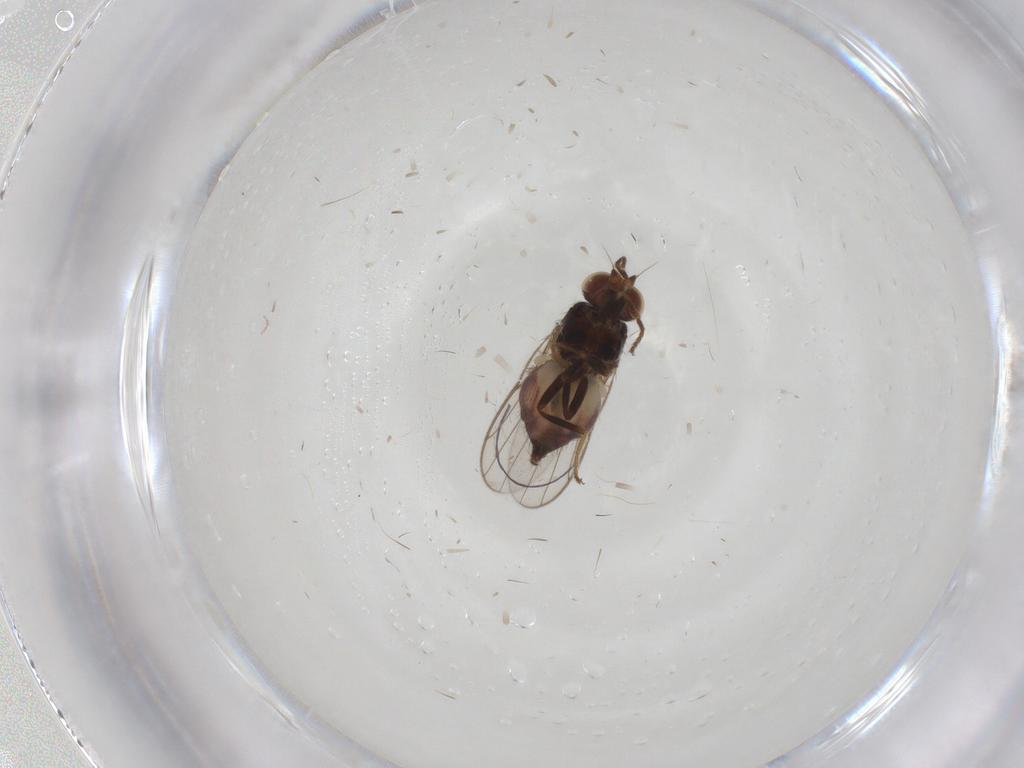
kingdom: Animalia
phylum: Arthropoda
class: Insecta
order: Diptera
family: Chloropidae
